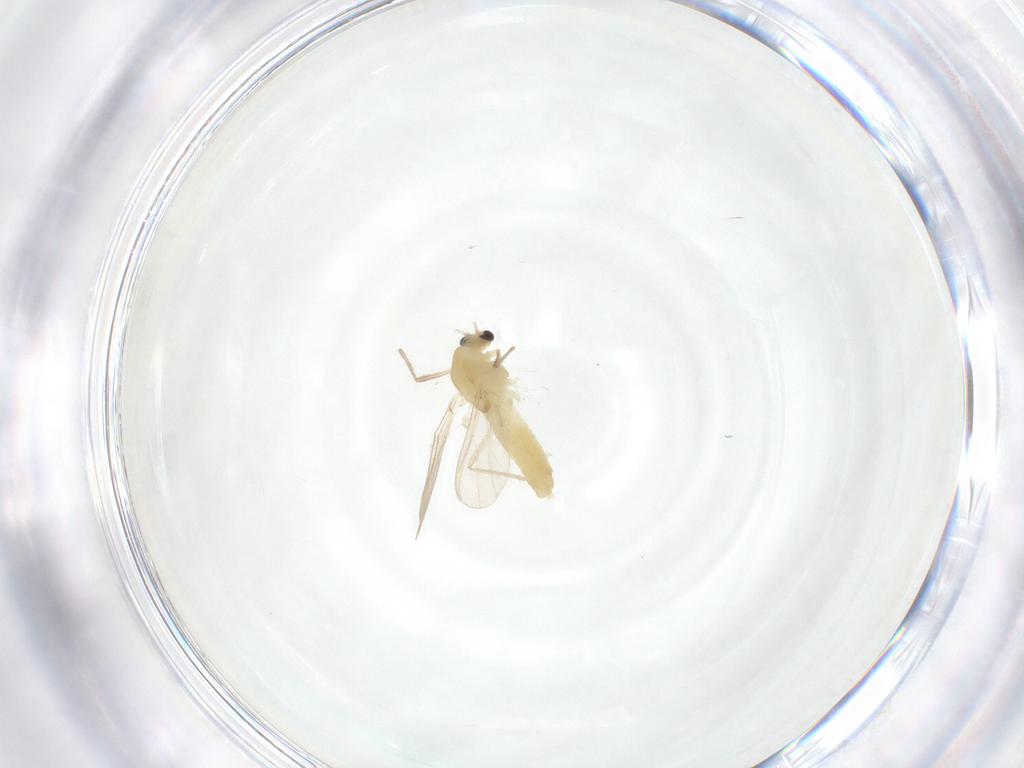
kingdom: Animalia
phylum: Arthropoda
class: Insecta
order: Diptera
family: Chironomidae
